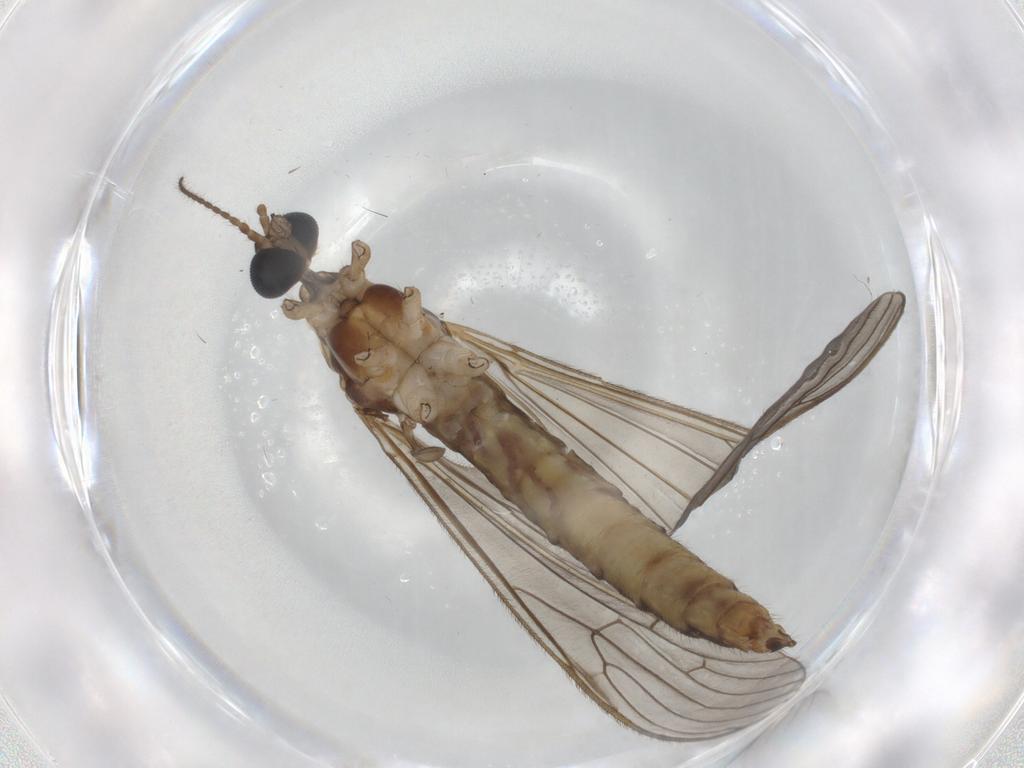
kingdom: Animalia
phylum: Arthropoda
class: Insecta
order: Diptera
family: Limoniidae
